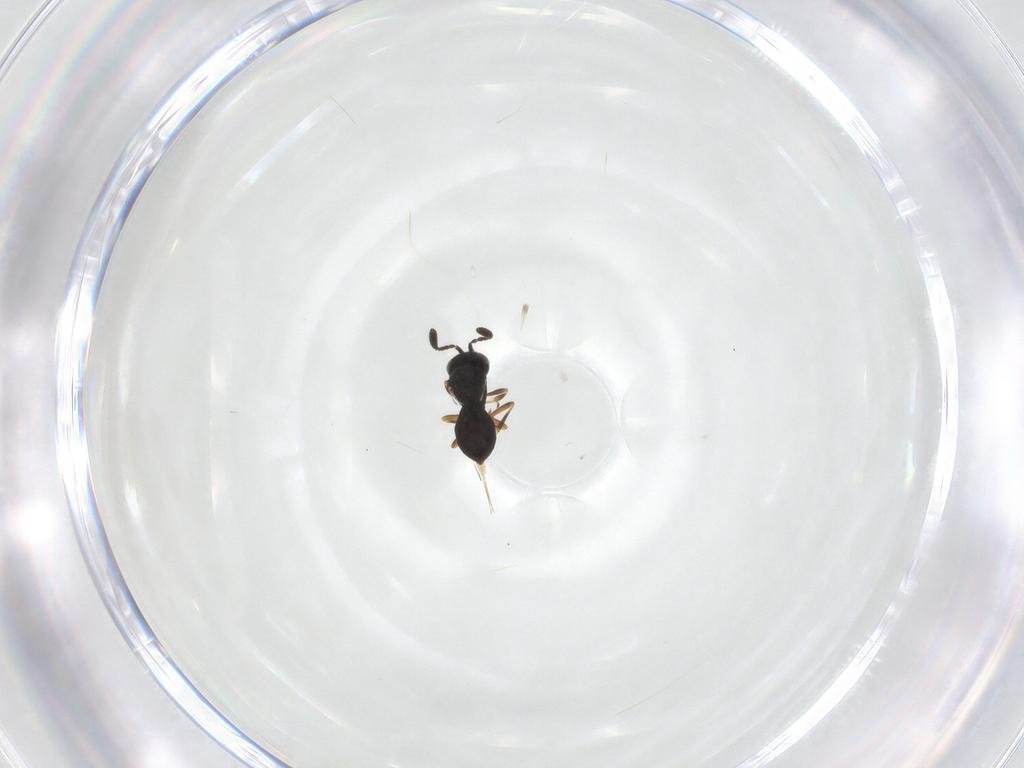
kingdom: Animalia
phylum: Arthropoda
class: Insecta
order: Hymenoptera
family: Scelionidae
